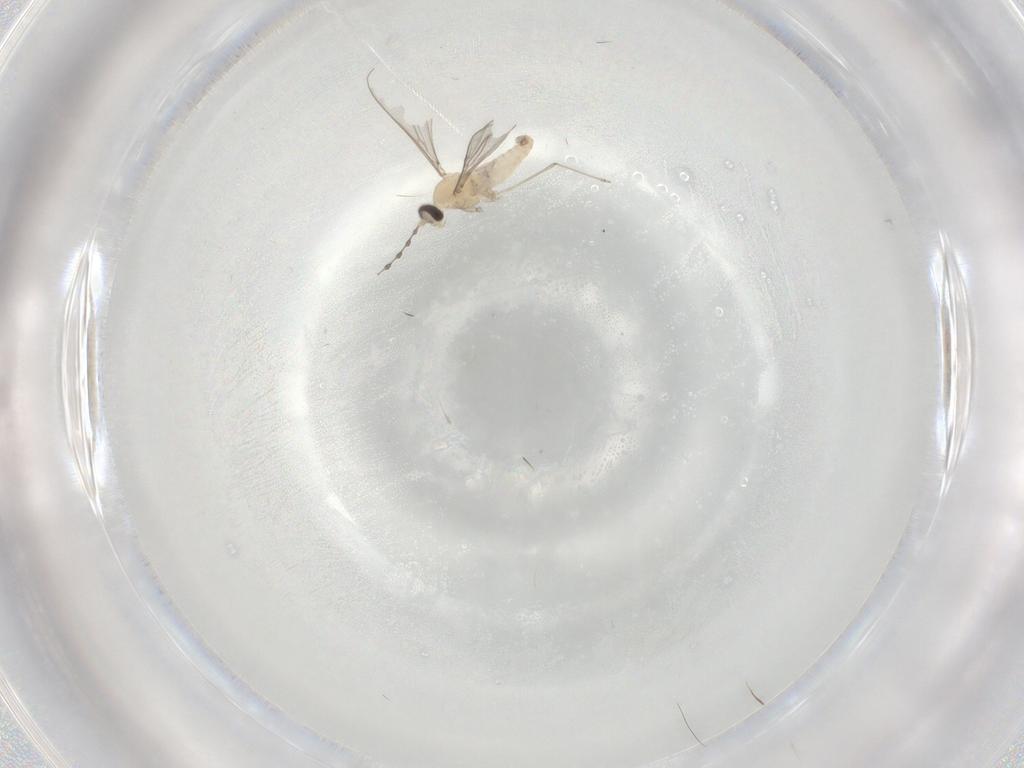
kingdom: Animalia
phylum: Arthropoda
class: Insecta
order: Diptera
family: Cecidomyiidae
